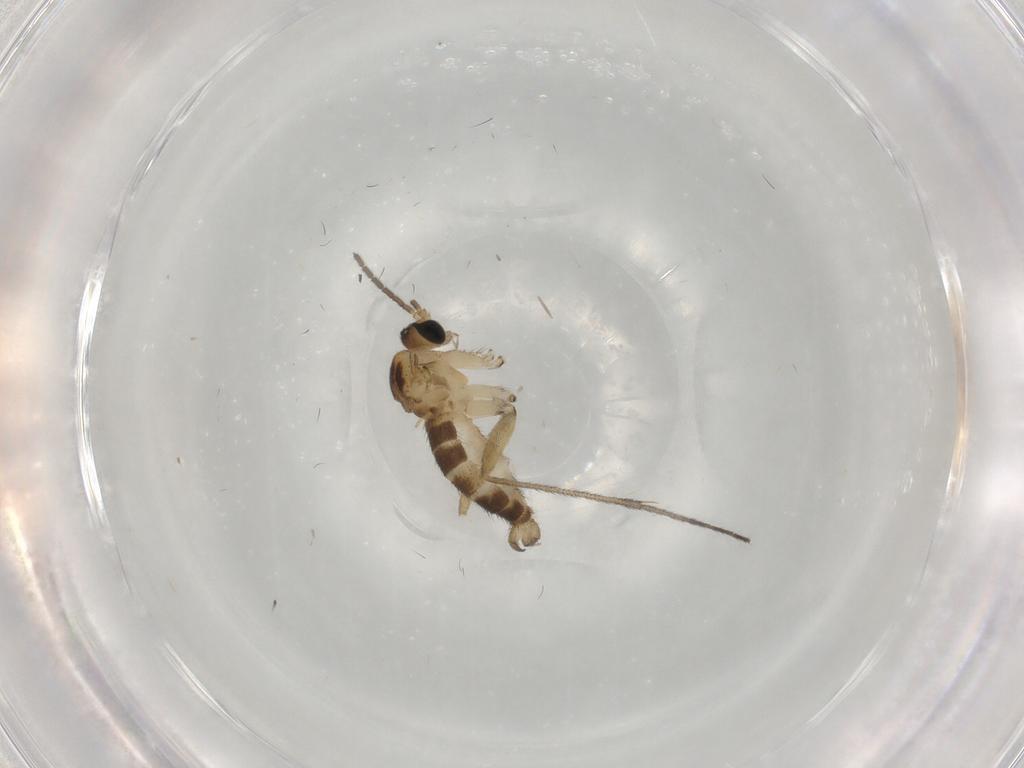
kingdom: Animalia
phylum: Arthropoda
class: Insecta
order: Diptera
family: Sciaridae
